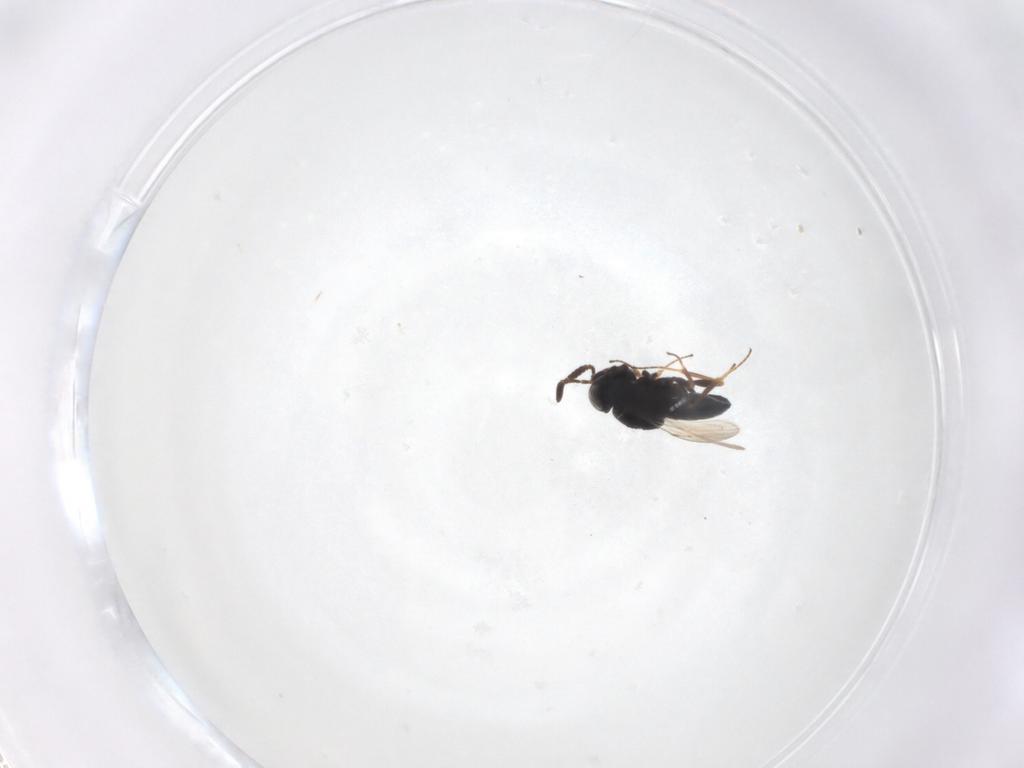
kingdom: Animalia
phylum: Arthropoda
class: Insecta
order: Hymenoptera
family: Scelionidae
